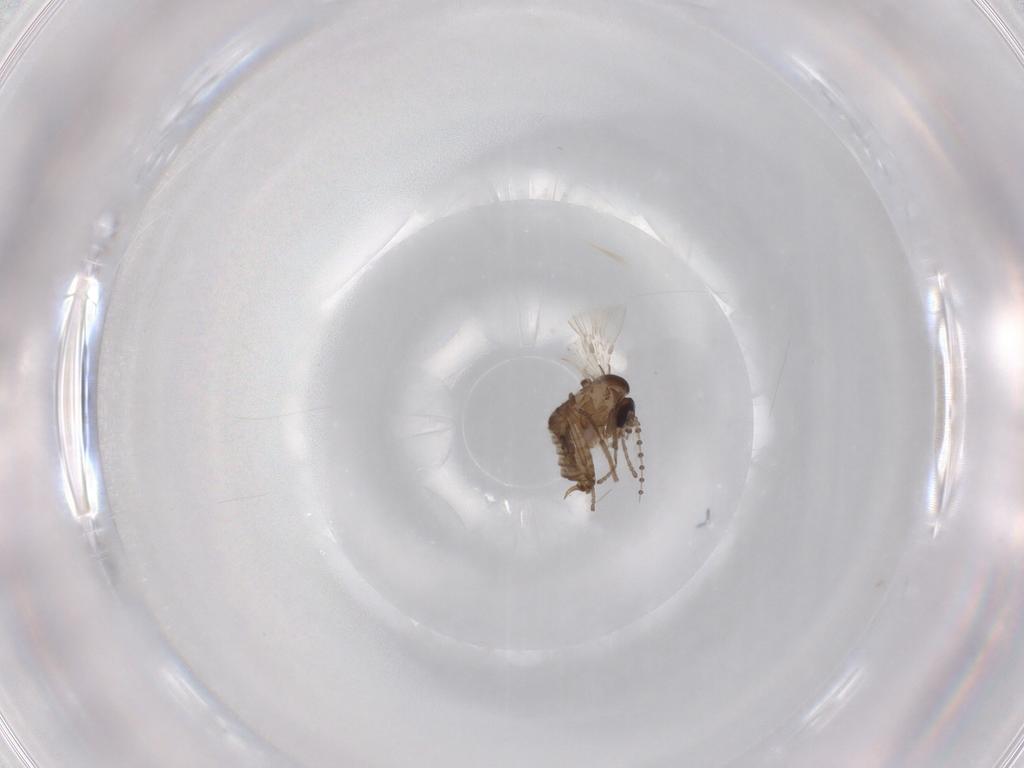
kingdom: Animalia
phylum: Arthropoda
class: Insecta
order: Diptera
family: Psychodidae
